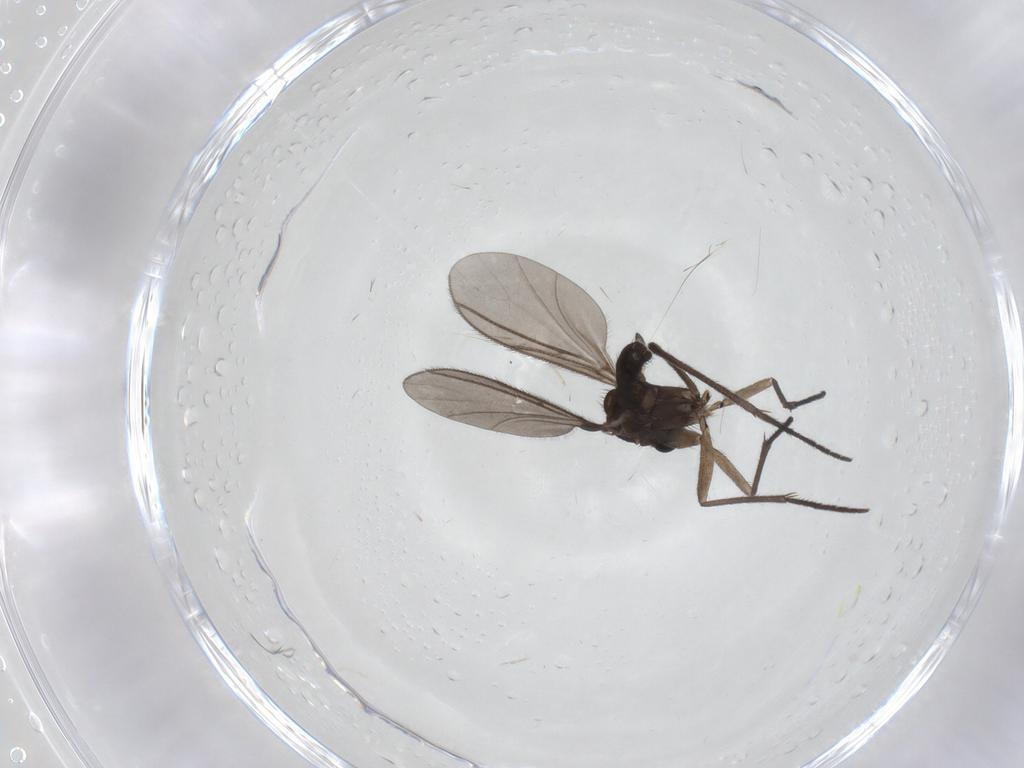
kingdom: Animalia
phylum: Arthropoda
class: Insecta
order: Diptera
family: Sciaridae
